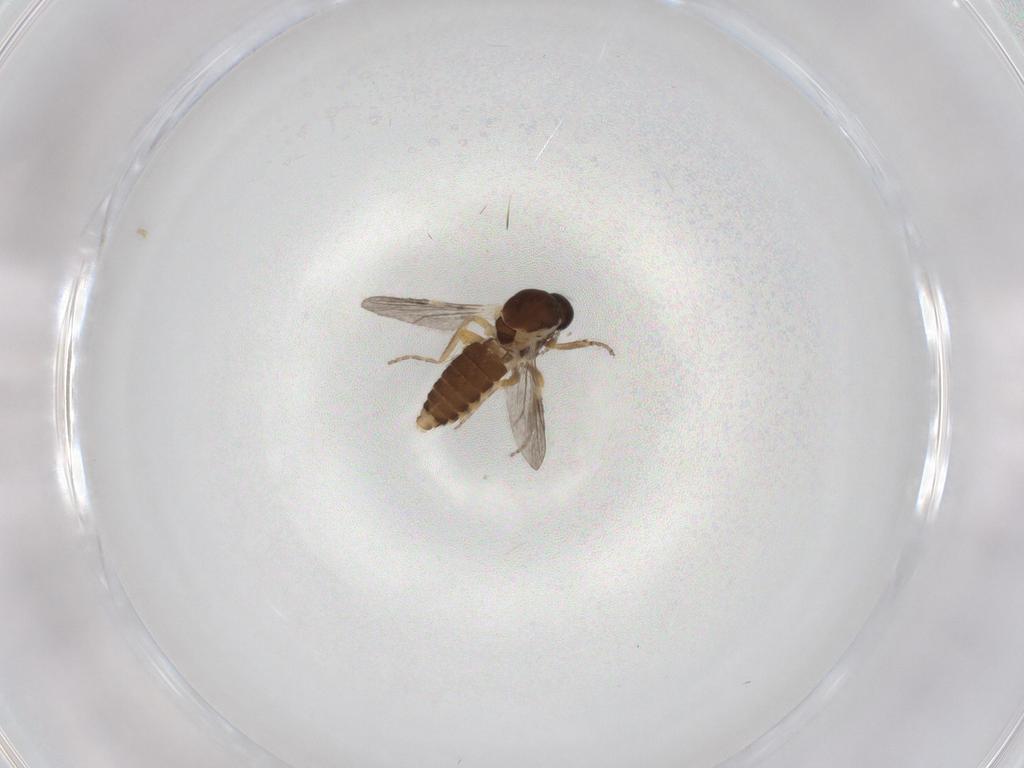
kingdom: Animalia
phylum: Arthropoda
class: Insecta
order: Diptera
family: Ceratopogonidae
